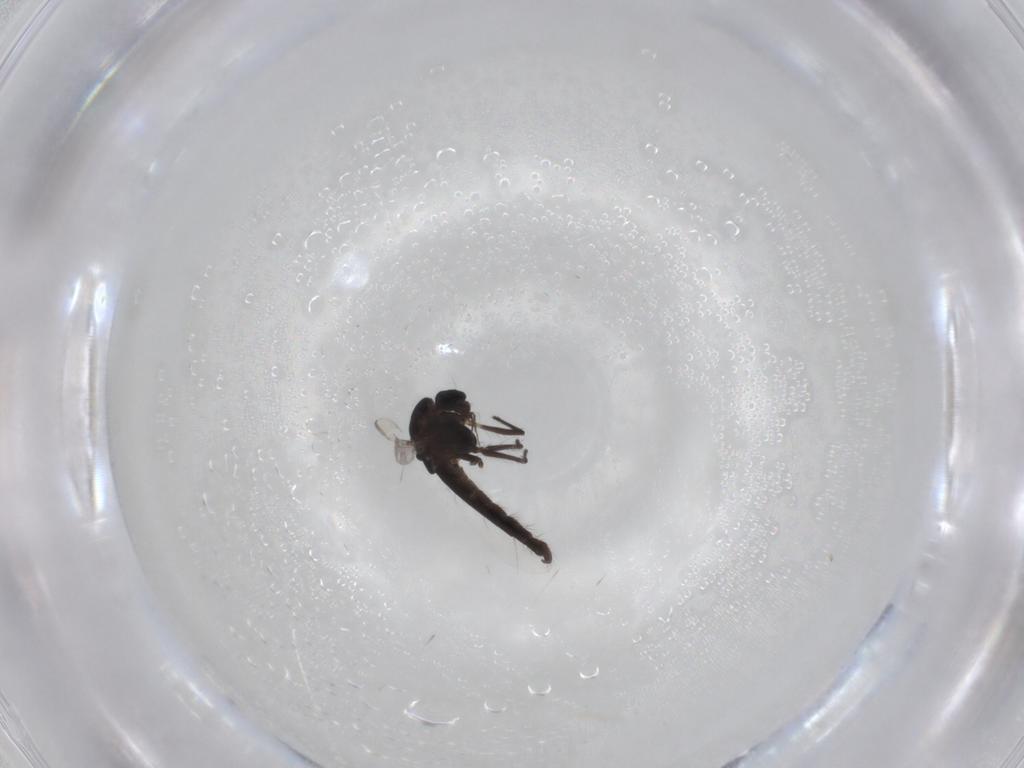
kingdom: Animalia
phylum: Arthropoda
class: Insecta
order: Diptera
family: Chironomidae
